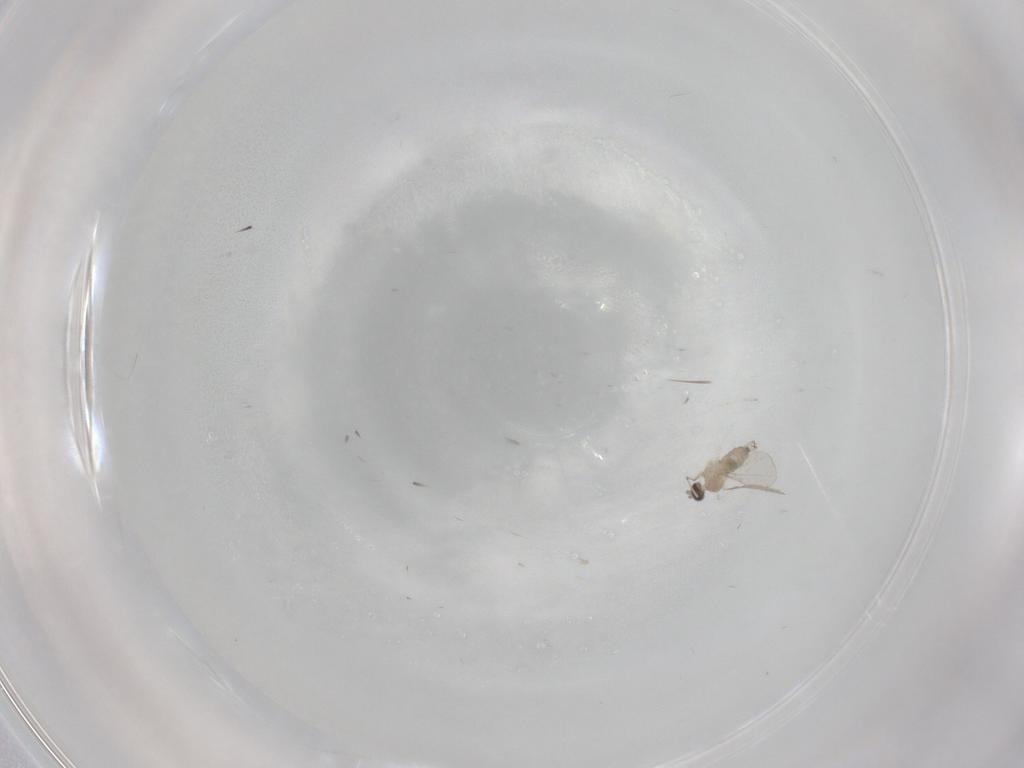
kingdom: Animalia
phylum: Arthropoda
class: Insecta
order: Diptera
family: Cecidomyiidae
